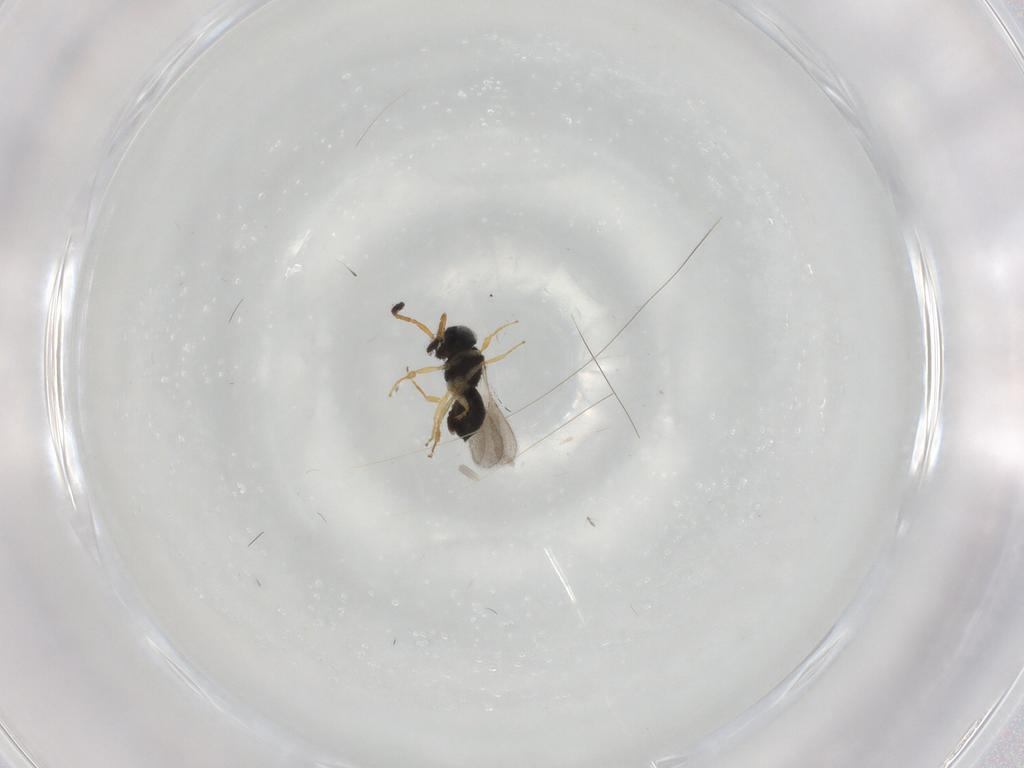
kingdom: Animalia
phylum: Arthropoda
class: Insecta
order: Hymenoptera
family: Scelionidae
